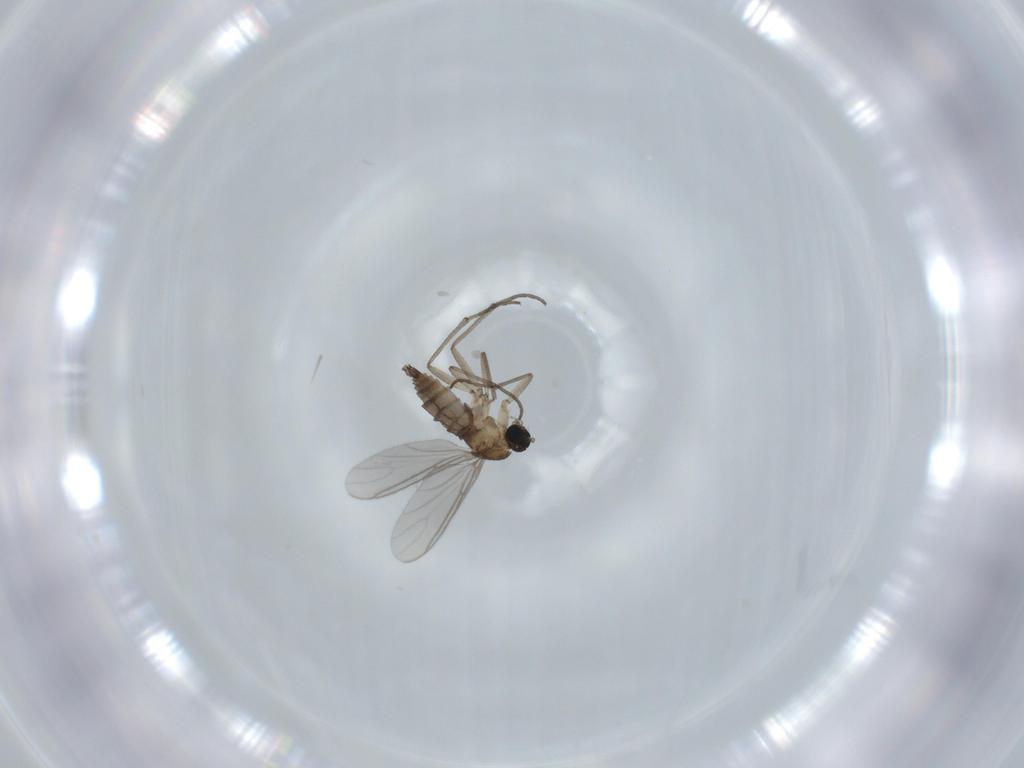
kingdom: Animalia
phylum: Arthropoda
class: Insecta
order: Diptera
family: Sciaridae
